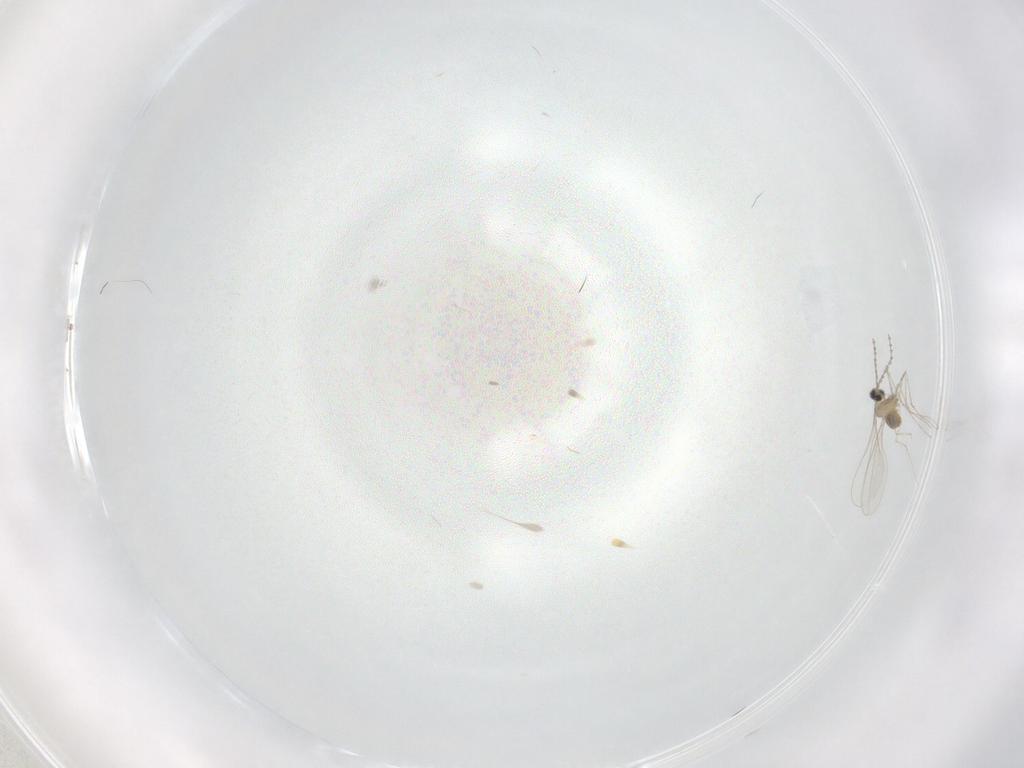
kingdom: Animalia
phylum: Arthropoda
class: Insecta
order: Diptera
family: Cecidomyiidae
